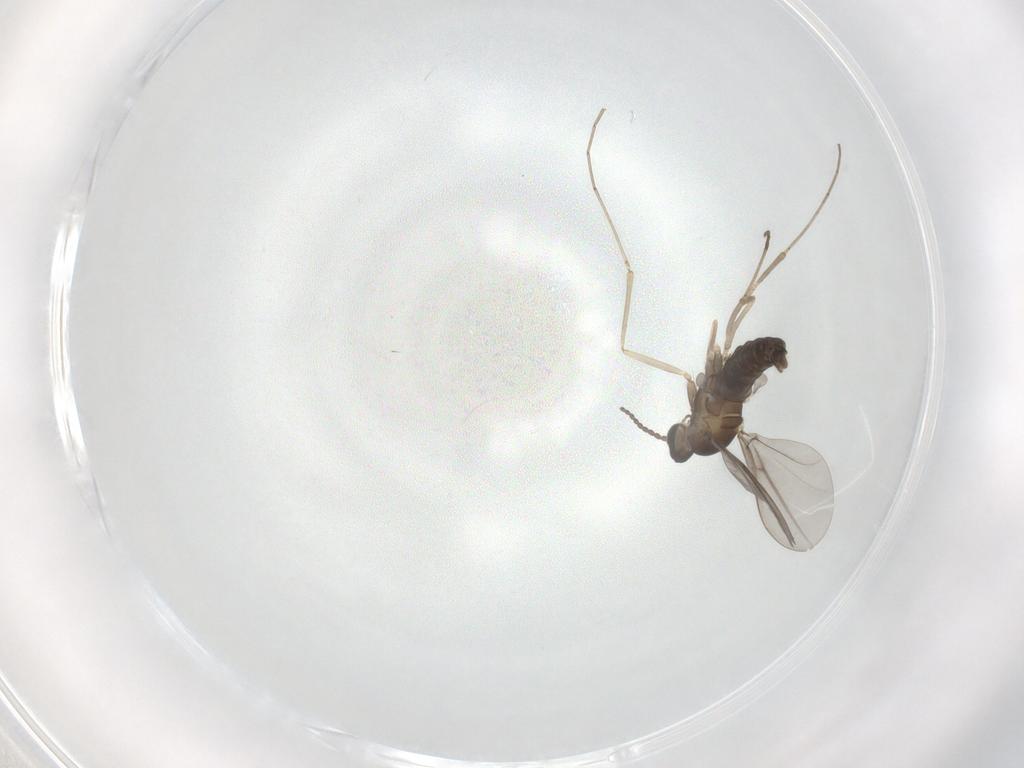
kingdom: Animalia
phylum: Arthropoda
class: Insecta
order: Diptera
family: Cecidomyiidae
